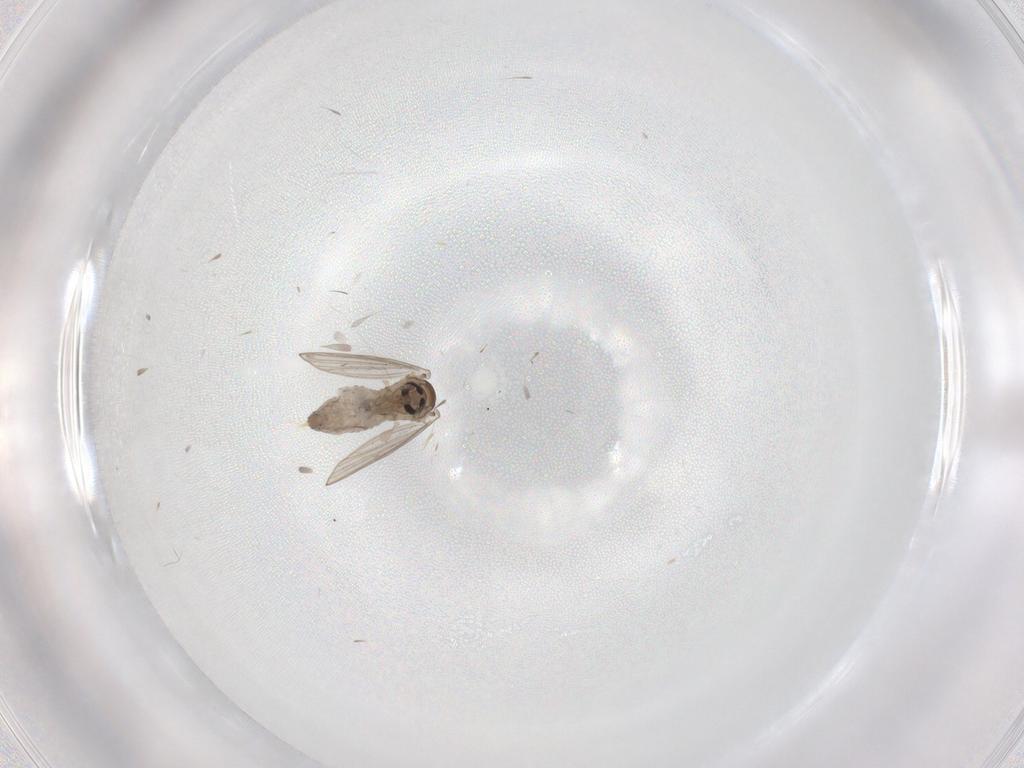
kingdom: Animalia
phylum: Arthropoda
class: Insecta
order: Diptera
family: Psychodidae
